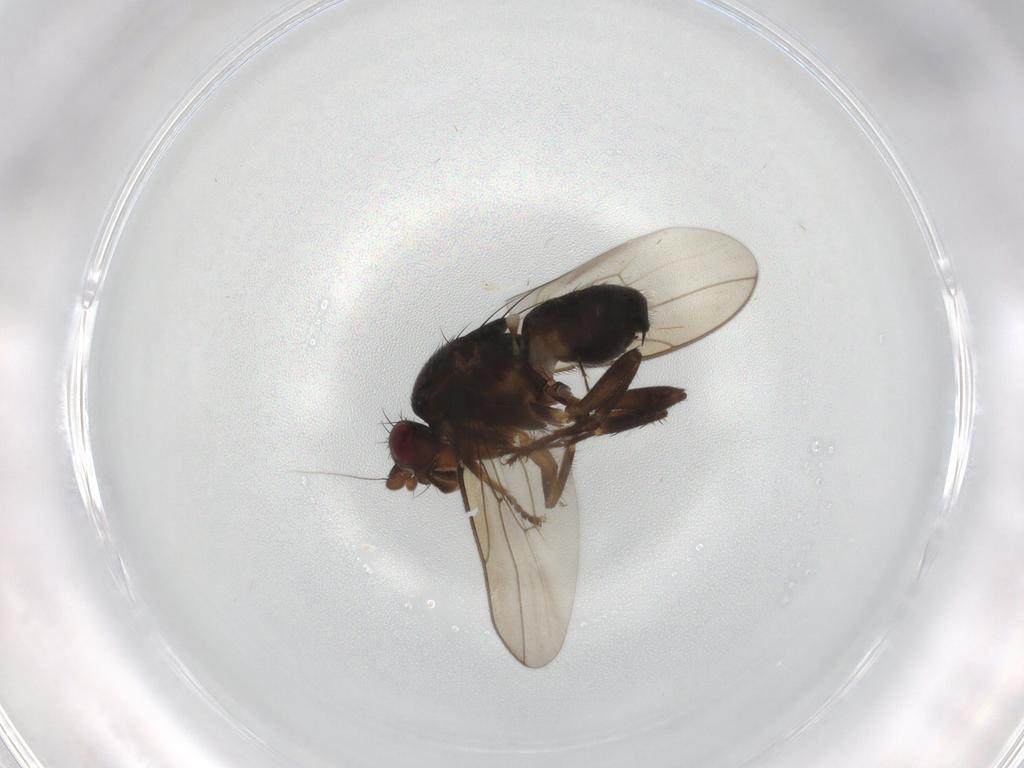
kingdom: Animalia
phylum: Arthropoda
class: Insecta
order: Diptera
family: Sphaeroceridae
